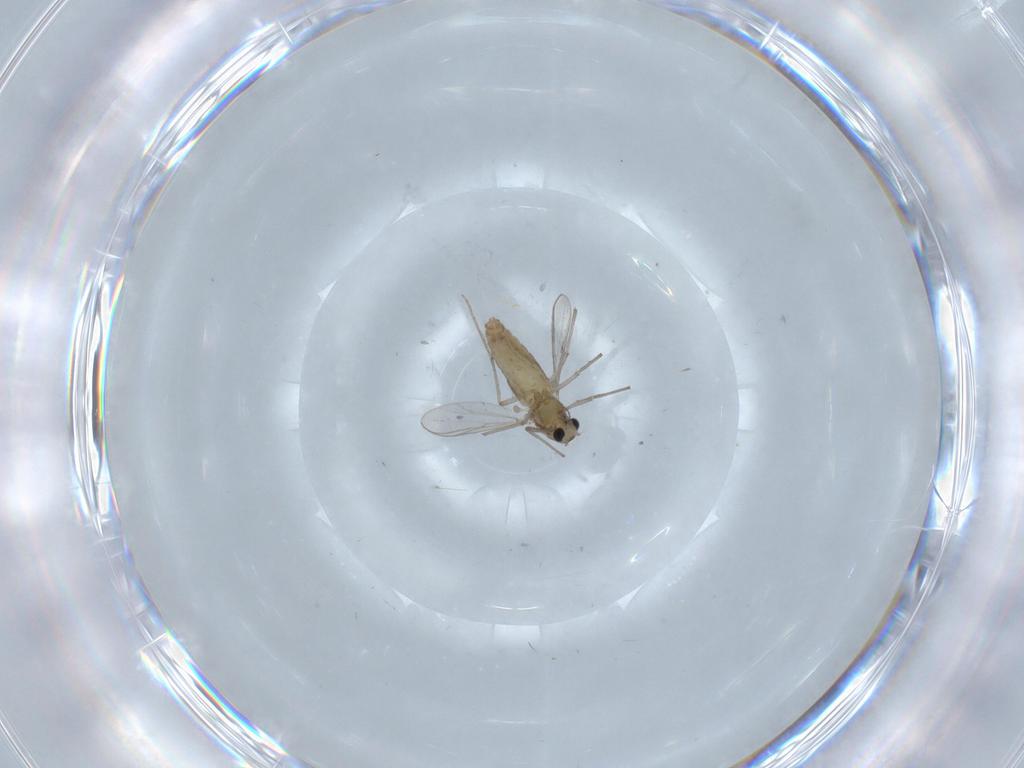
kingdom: Animalia
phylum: Arthropoda
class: Insecta
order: Diptera
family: Chironomidae
